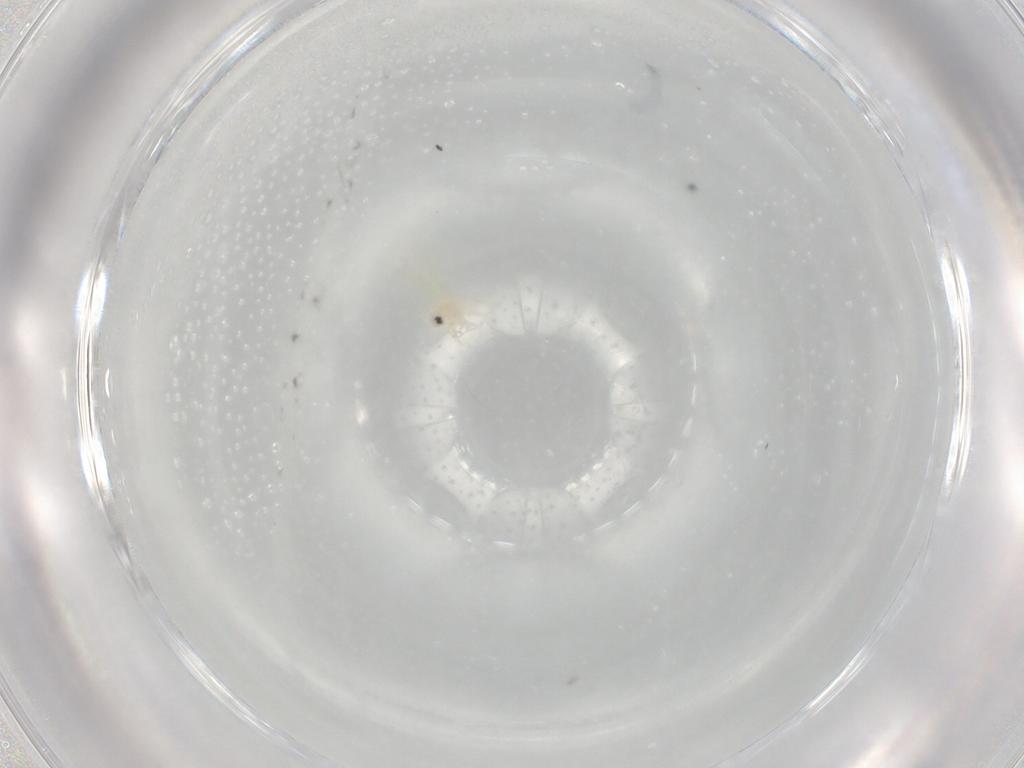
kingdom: Animalia
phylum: Arthropoda
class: Insecta
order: Hemiptera
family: Aleyrodidae
